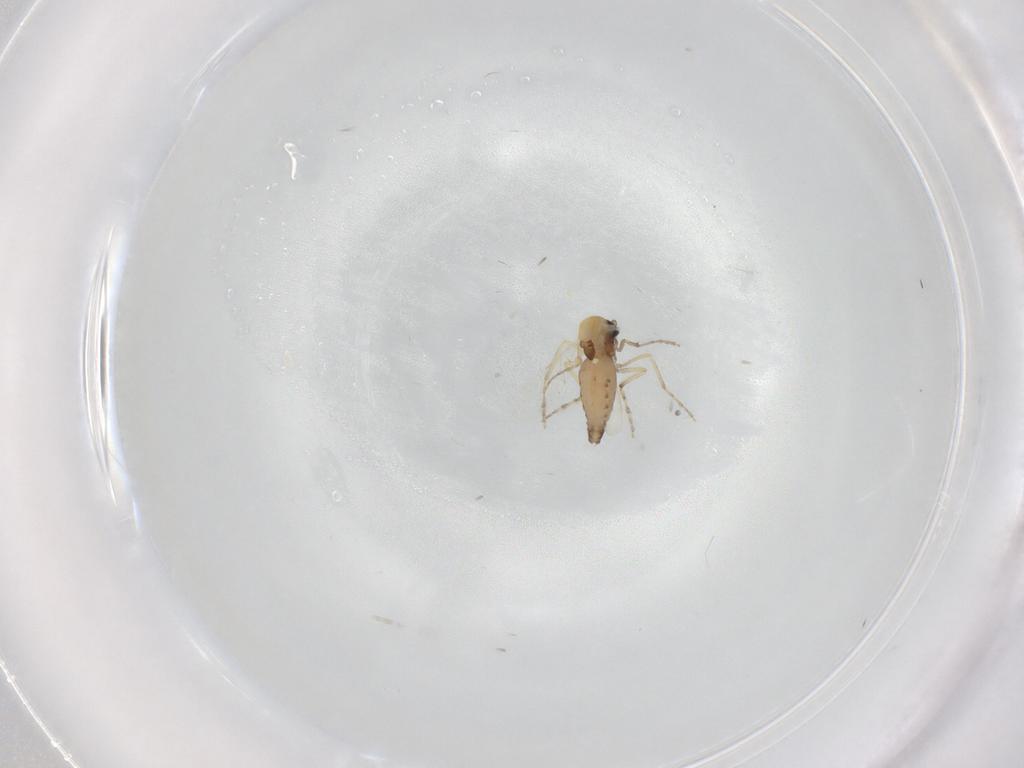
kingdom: Animalia
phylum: Arthropoda
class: Insecta
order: Diptera
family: Ceratopogonidae
